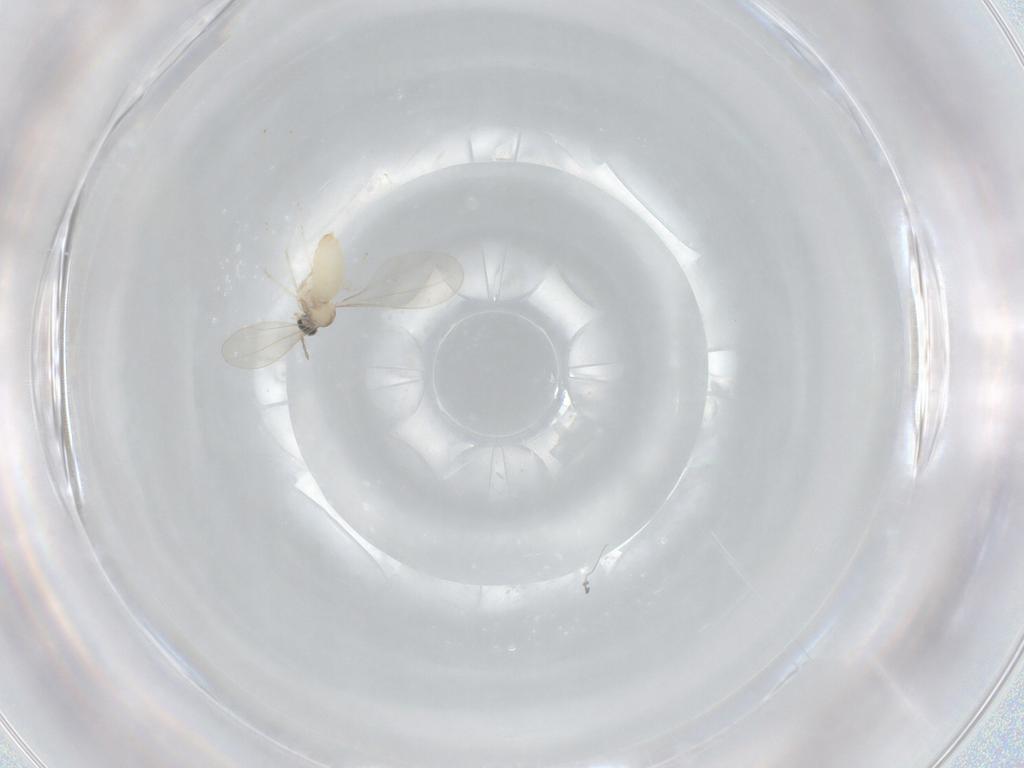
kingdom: Animalia
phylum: Arthropoda
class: Insecta
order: Diptera
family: Cecidomyiidae
